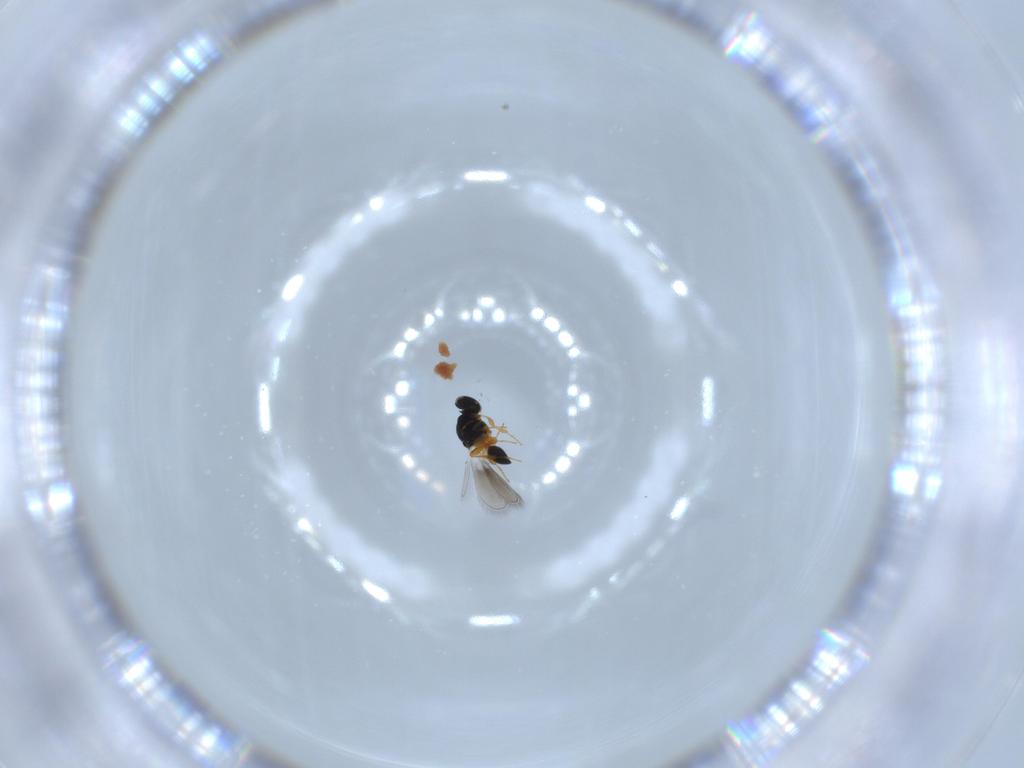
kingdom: Animalia
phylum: Arthropoda
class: Insecta
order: Hymenoptera
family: Platygastridae
